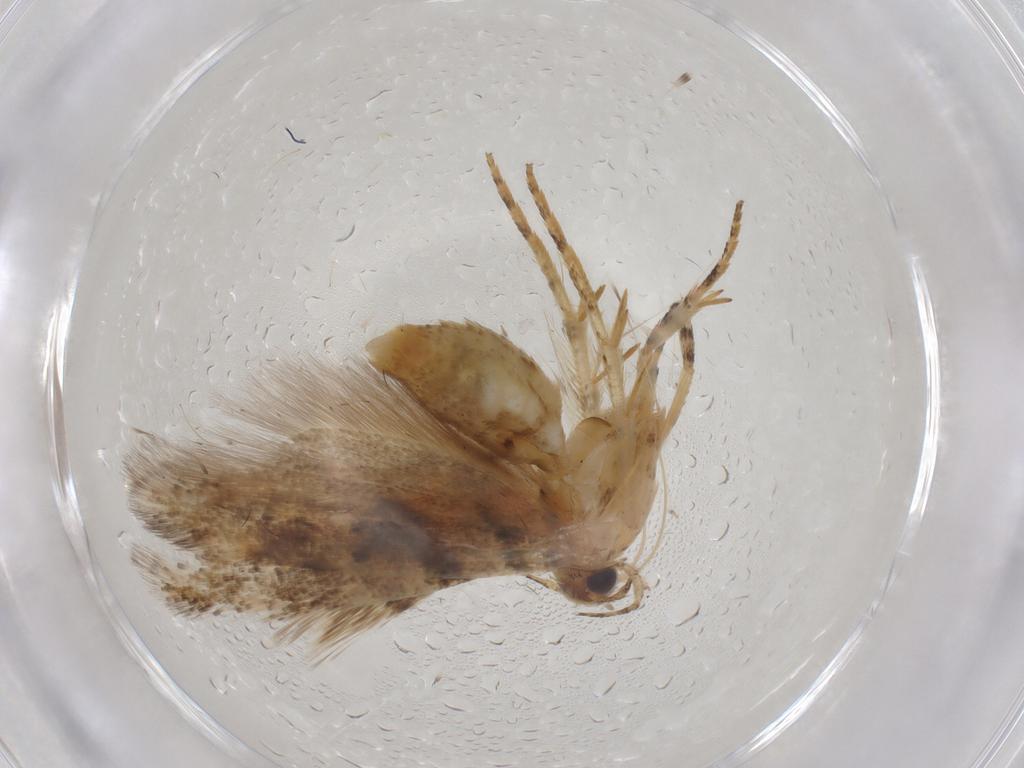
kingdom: Animalia
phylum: Arthropoda
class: Insecta
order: Lepidoptera
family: Gelechiidae
